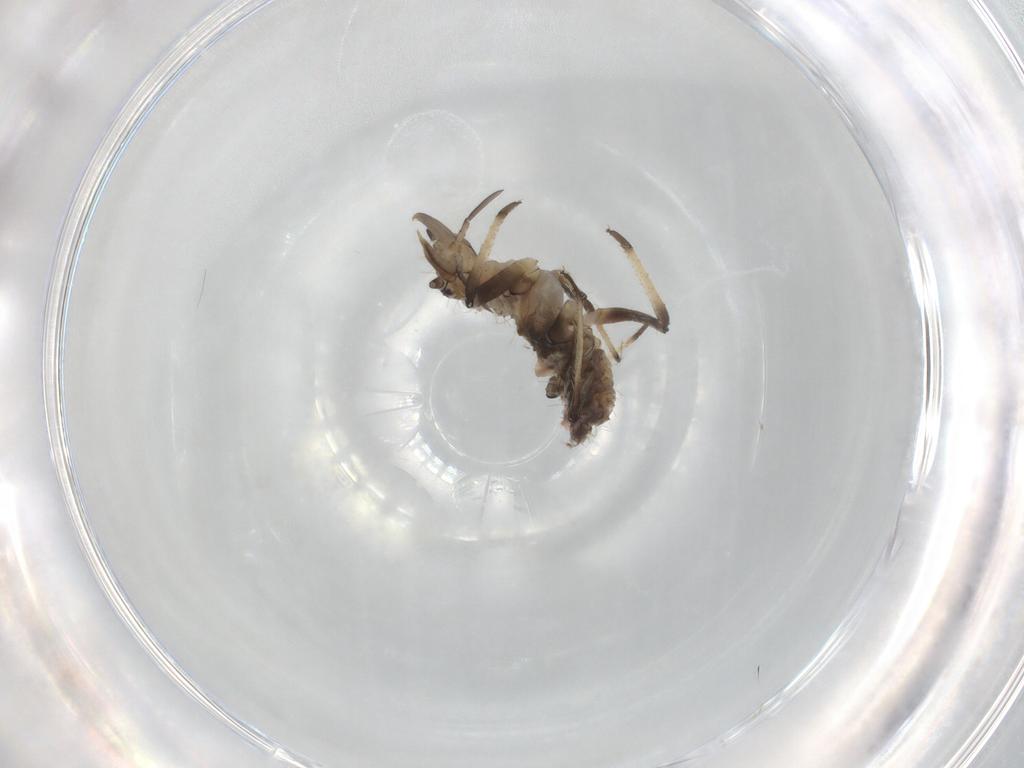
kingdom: Animalia
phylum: Arthropoda
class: Insecta
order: Neuroptera
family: Hemerobiidae
